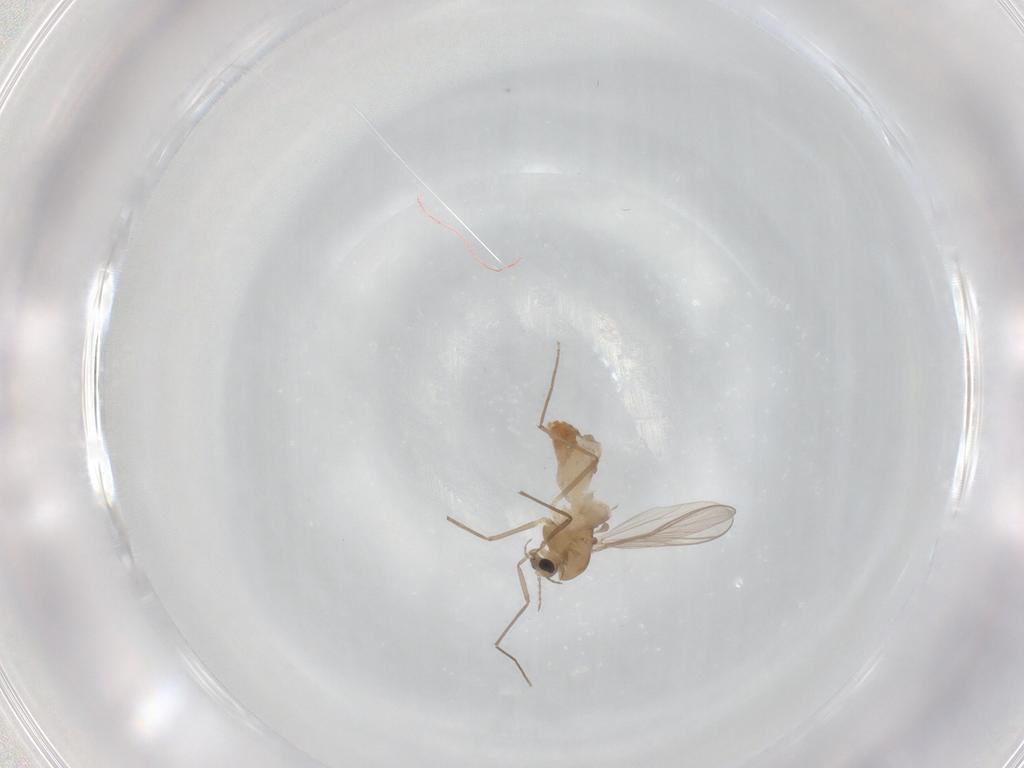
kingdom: Animalia
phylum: Arthropoda
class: Insecta
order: Diptera
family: Chironomidae
